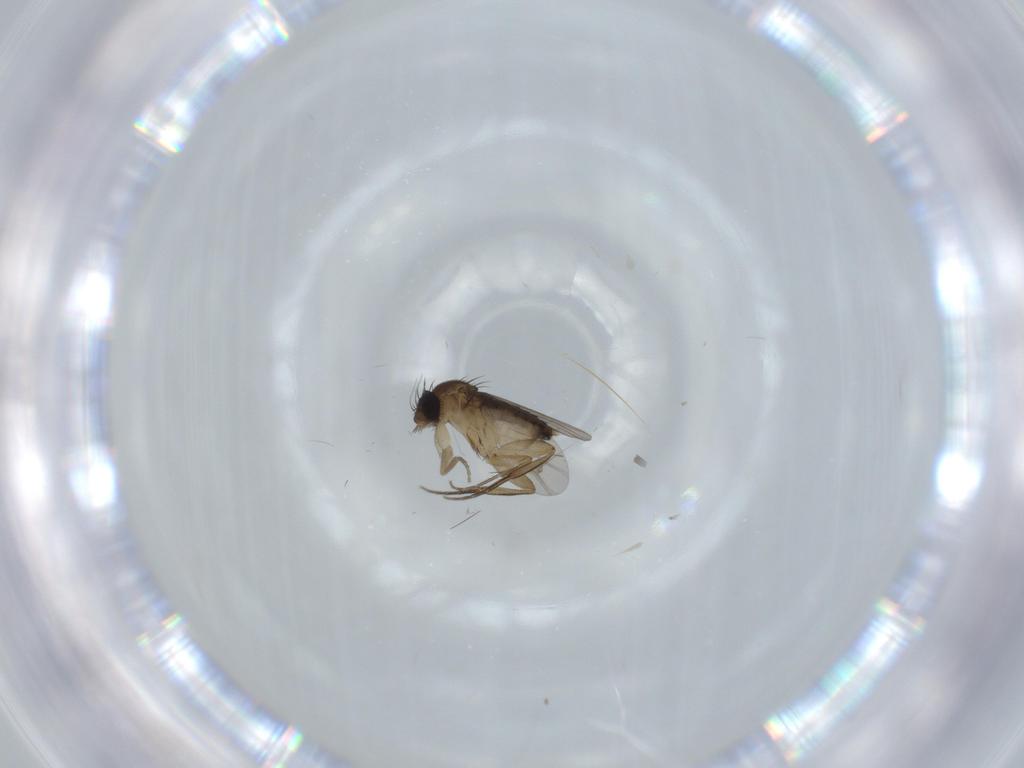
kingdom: Animalia
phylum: Arthropoda
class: Insecta
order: Diptera
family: Phoridae
